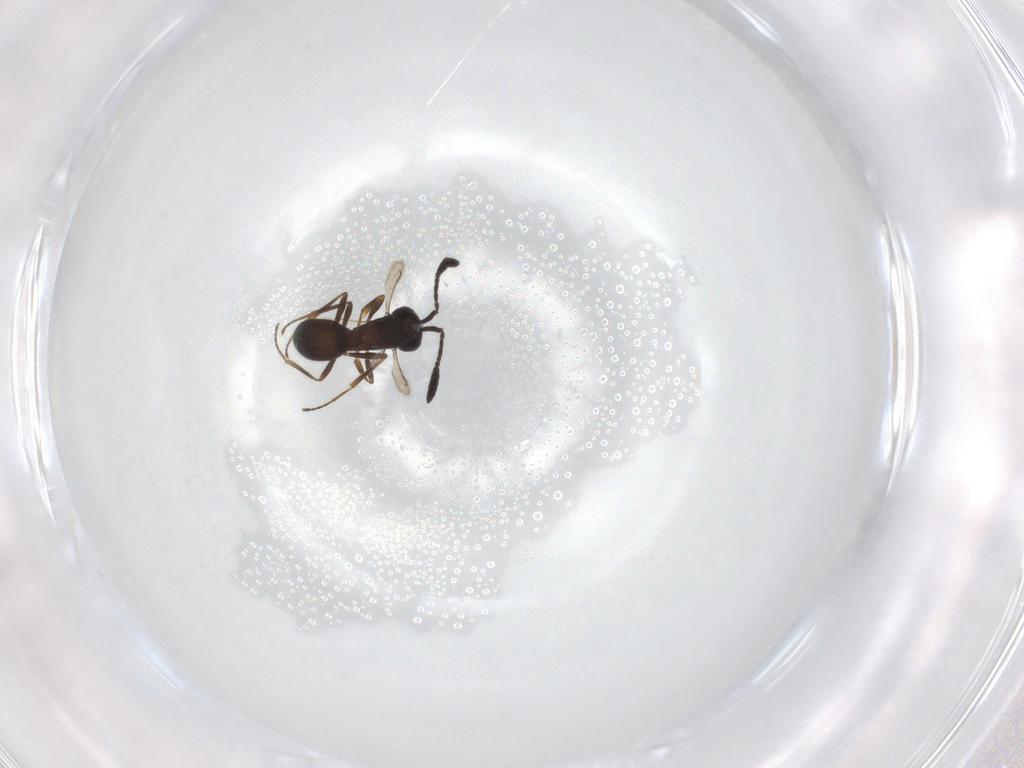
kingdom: Animalia
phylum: Arthropoda
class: Insecta
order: Hymenoptera
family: Scelionidae
